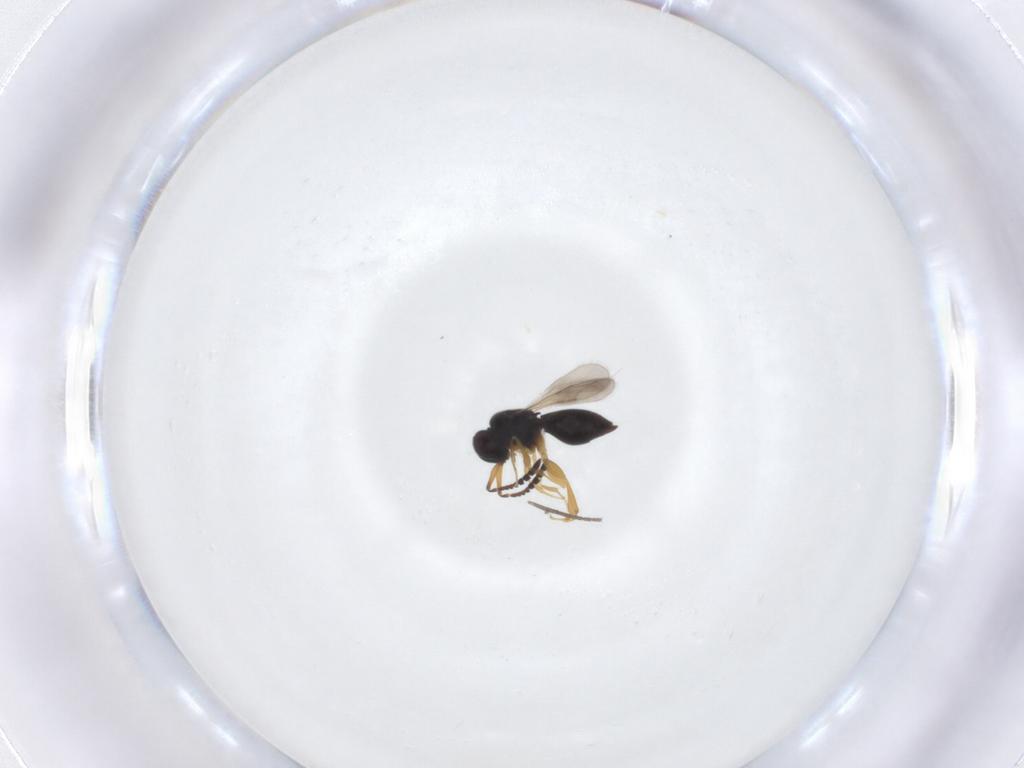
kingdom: Animalia
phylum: Arthropoda
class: Insecta
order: Hymenoptera
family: Ceraphronidae
